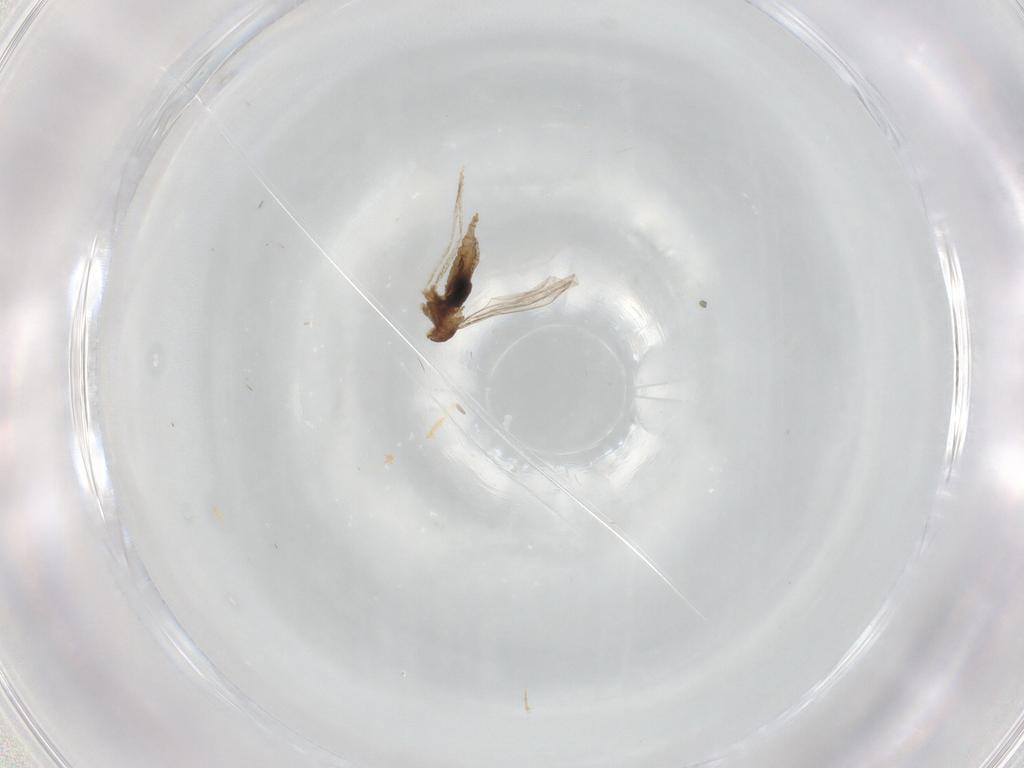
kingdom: Animalia
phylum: Arthropoda
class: Insecta
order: Diptera
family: Cecidomyiidae
